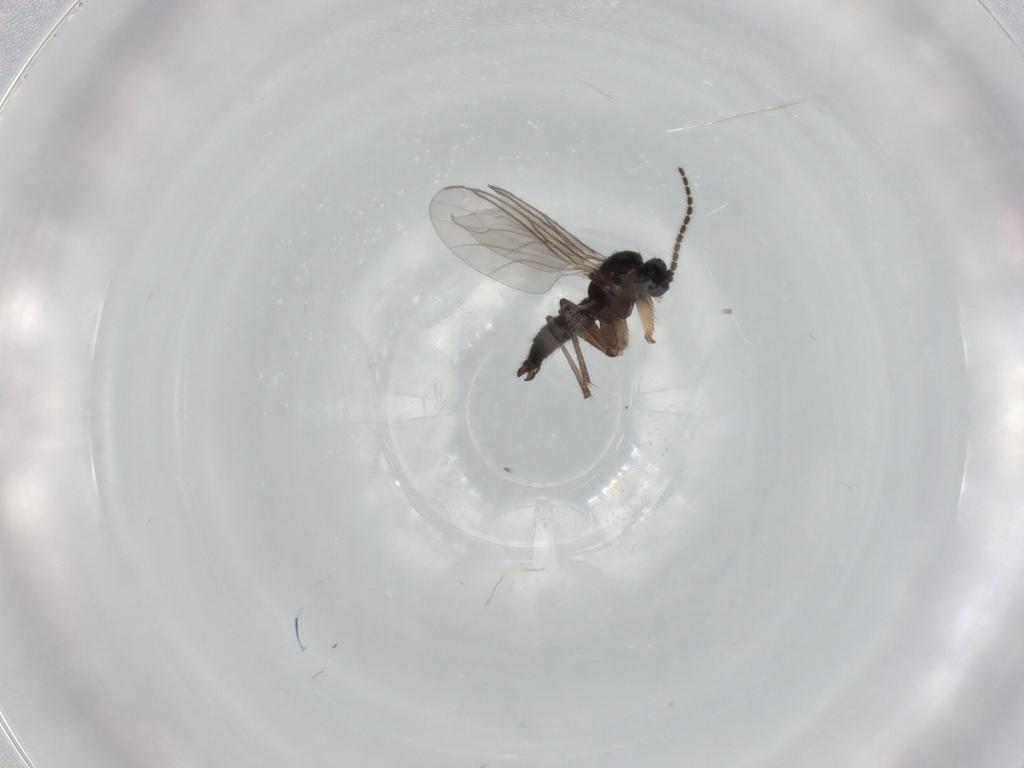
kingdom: Animalia
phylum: Arthropoda
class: Insecta
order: Diptera
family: Sciaridae
